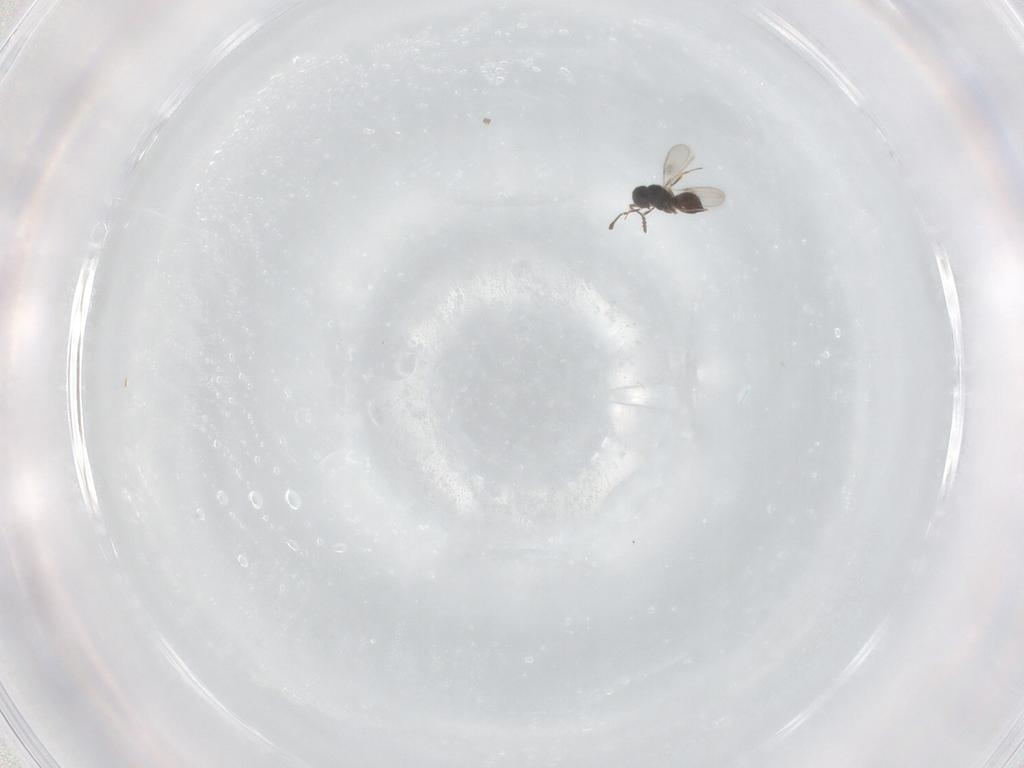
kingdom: Animalia
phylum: Arthropoda
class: Insecta
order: Hymenoptera
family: Scelionidae
